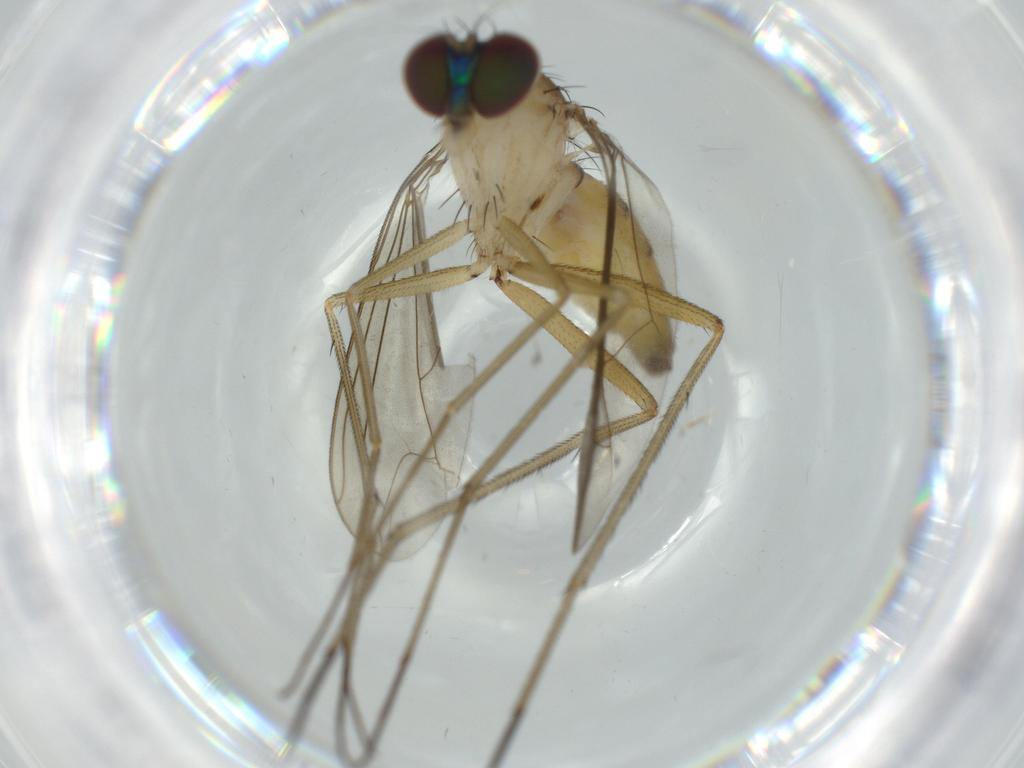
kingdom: Animalia
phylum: Arthropoda
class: Insecta
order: Diptera
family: Dolichopodidae
